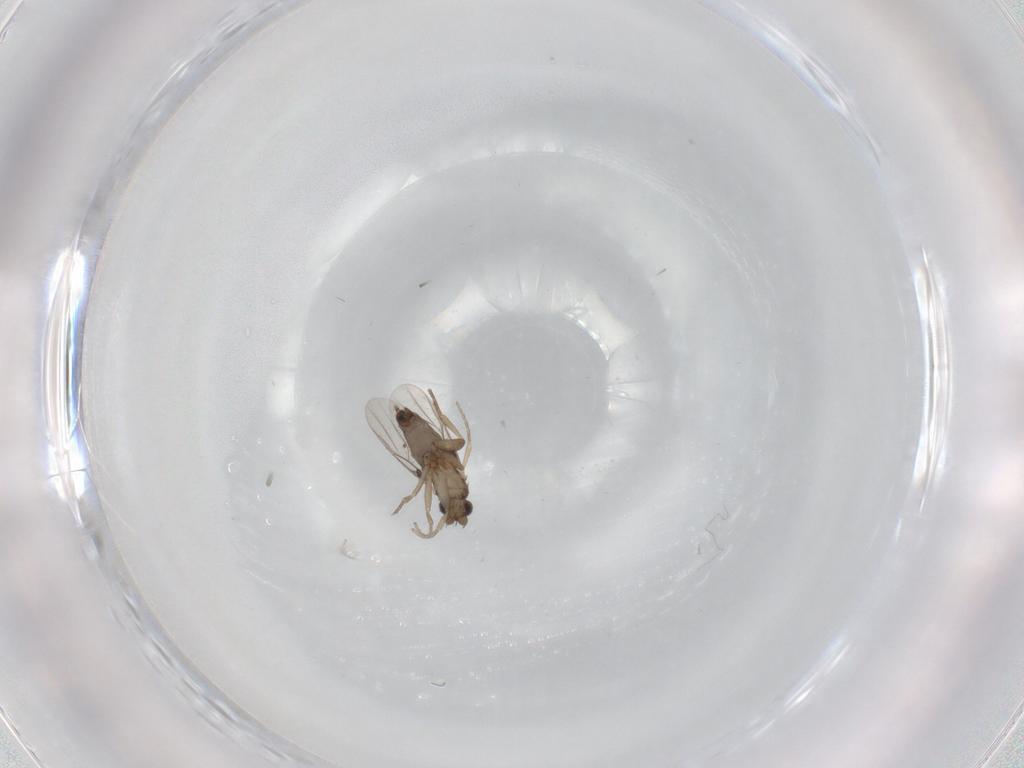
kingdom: Animalia
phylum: Arthropoda
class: Insecta
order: Diptera
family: Phoridae
